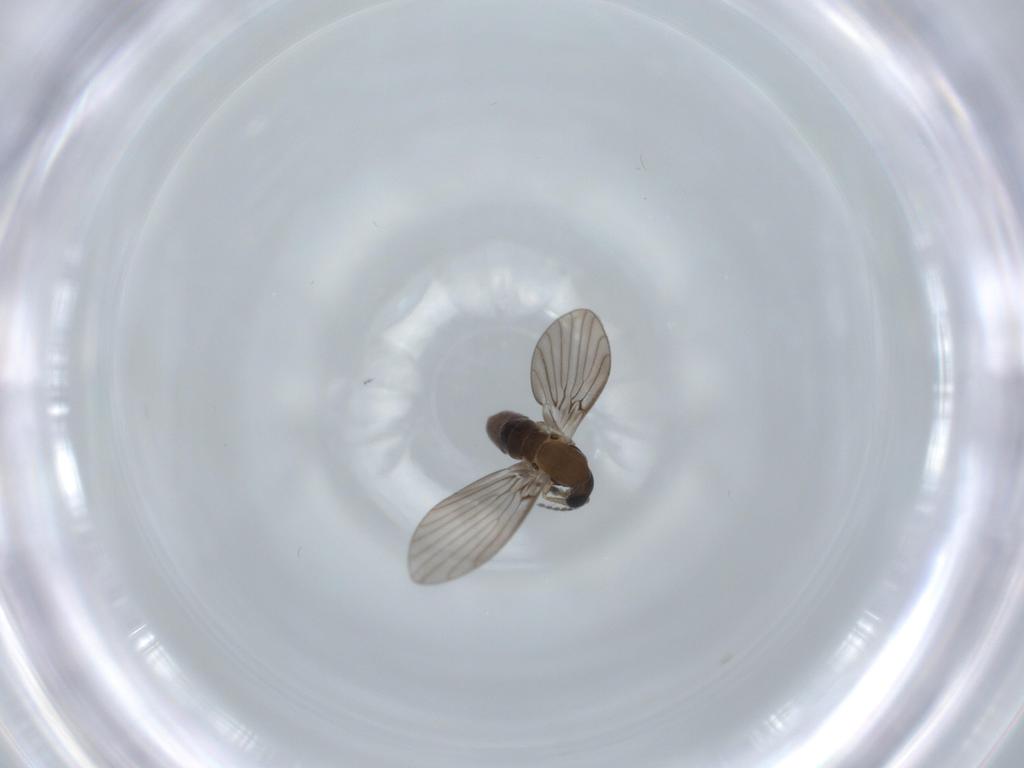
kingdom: Animalia
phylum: Arthropoda
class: Insecta
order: Diptera
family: Psychodidae
